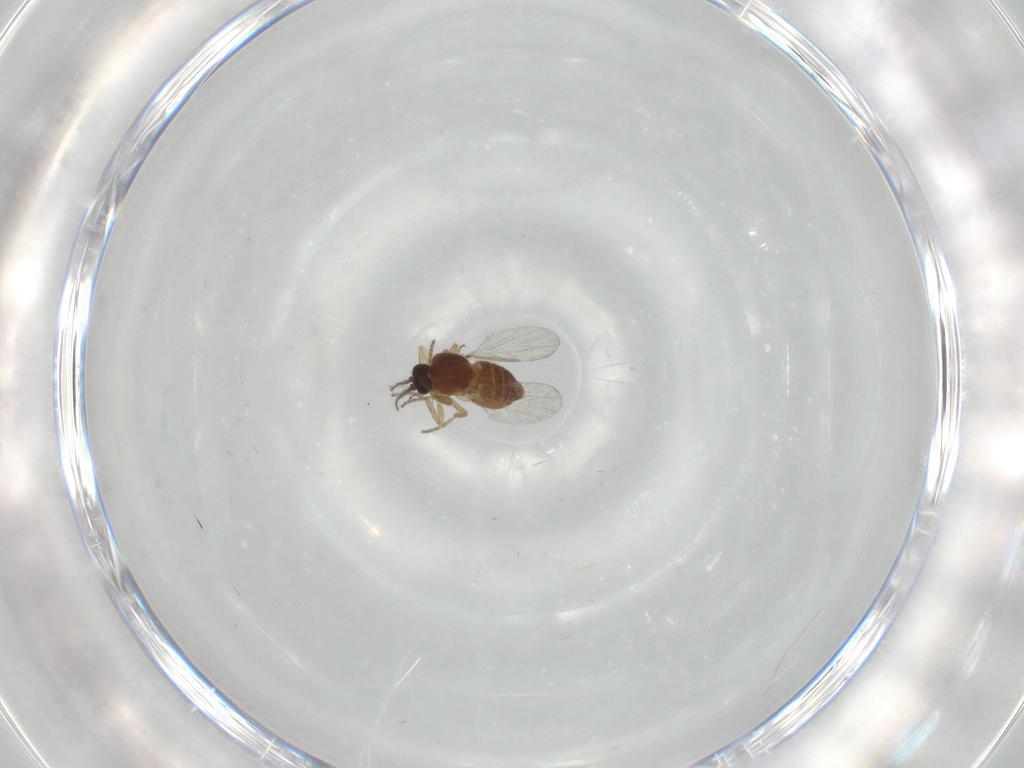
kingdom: Animalia
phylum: Arthropoda
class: Insecta
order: Diptera
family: Ceratopogonidae
